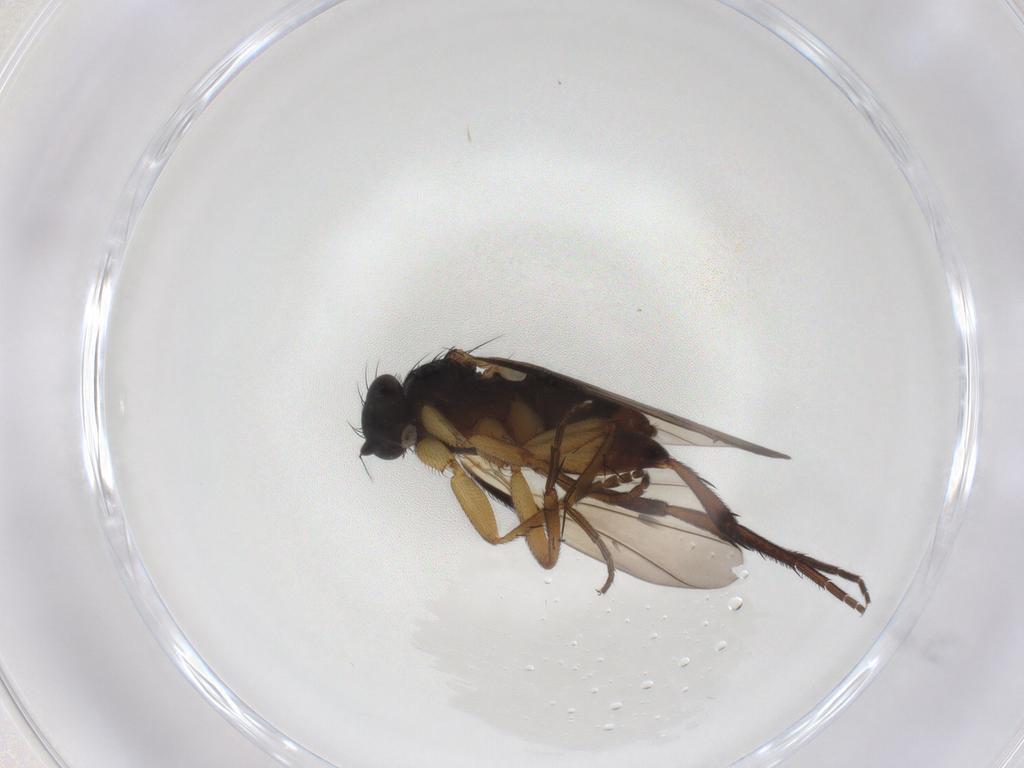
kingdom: Animalia
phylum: Arthropoda
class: Insecta
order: Diptera
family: Phoridae
